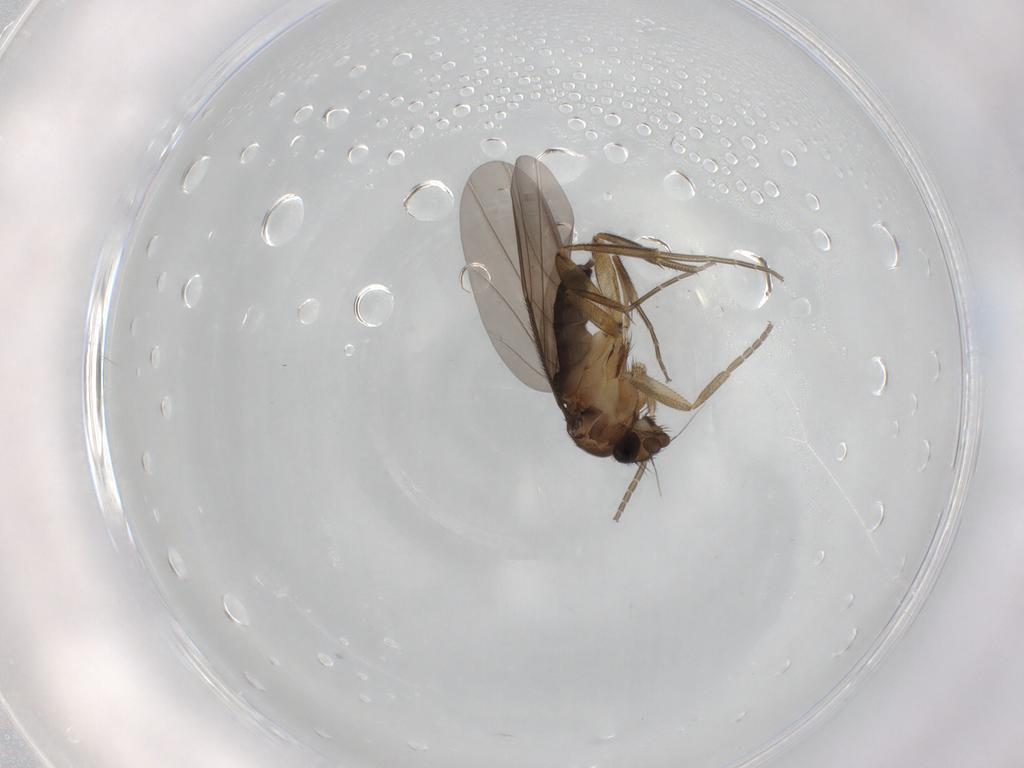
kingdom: Animalia
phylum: Arthropoda
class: Insecta
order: Diptera
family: Phoridae
